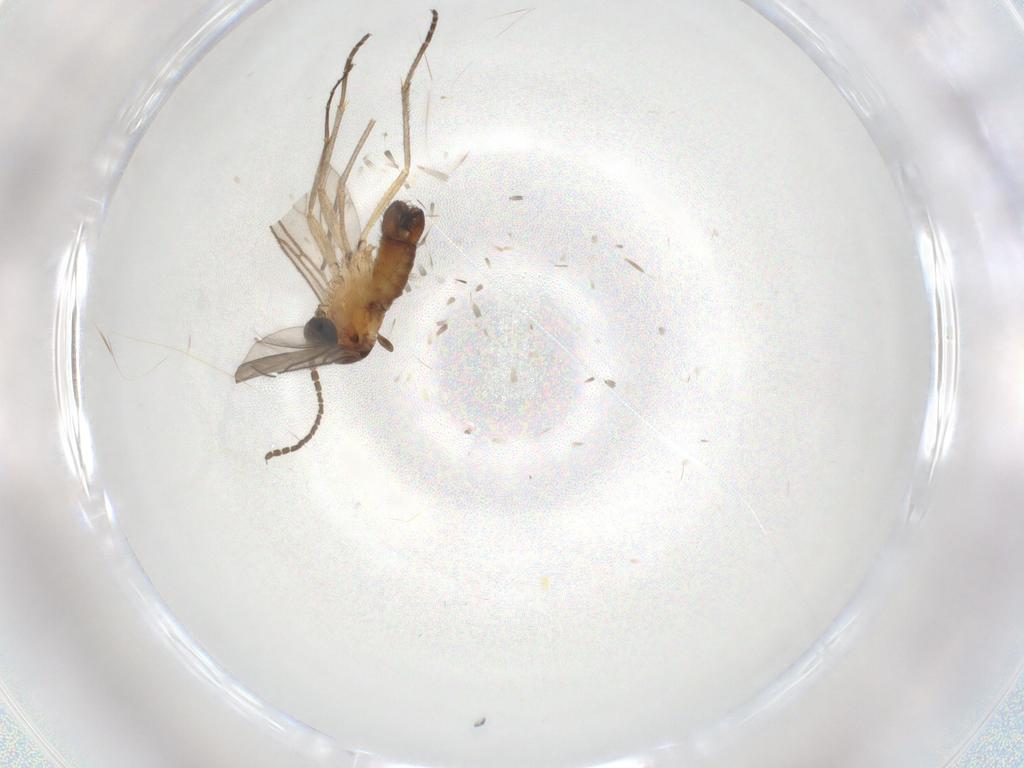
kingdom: Animalia
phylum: Arthropoda
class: Insecta
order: Diptera
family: Sciaridae
